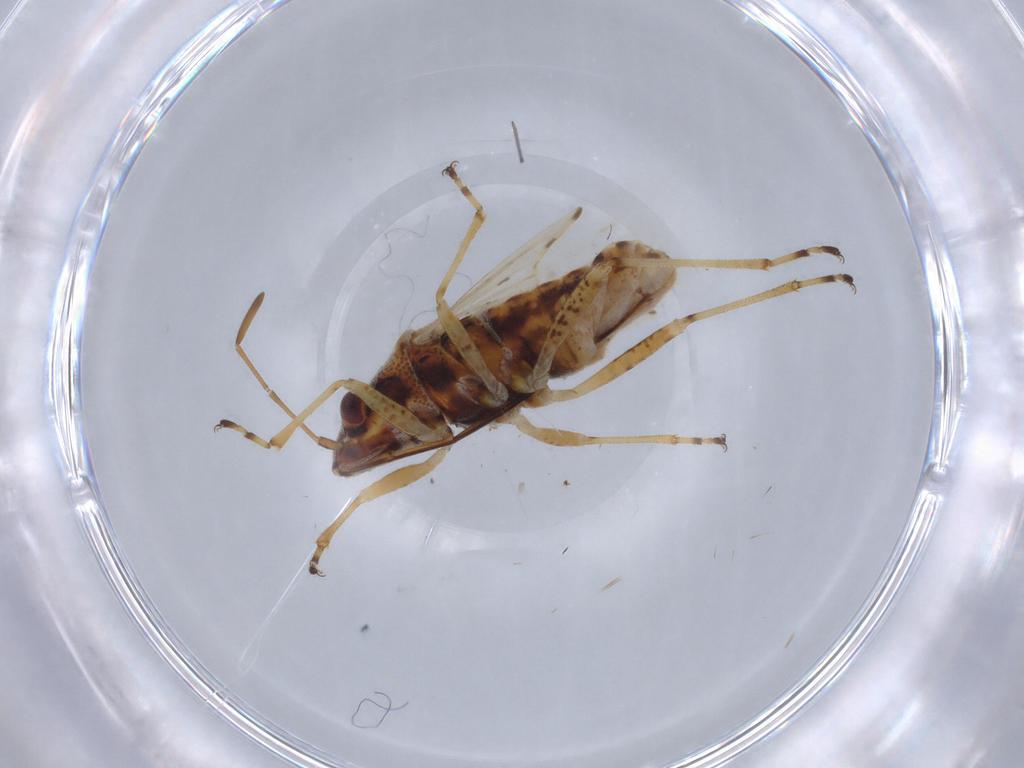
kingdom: Animalia
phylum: Arthropoda
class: Insecta
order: Hemiptera
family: Lygaeidae
